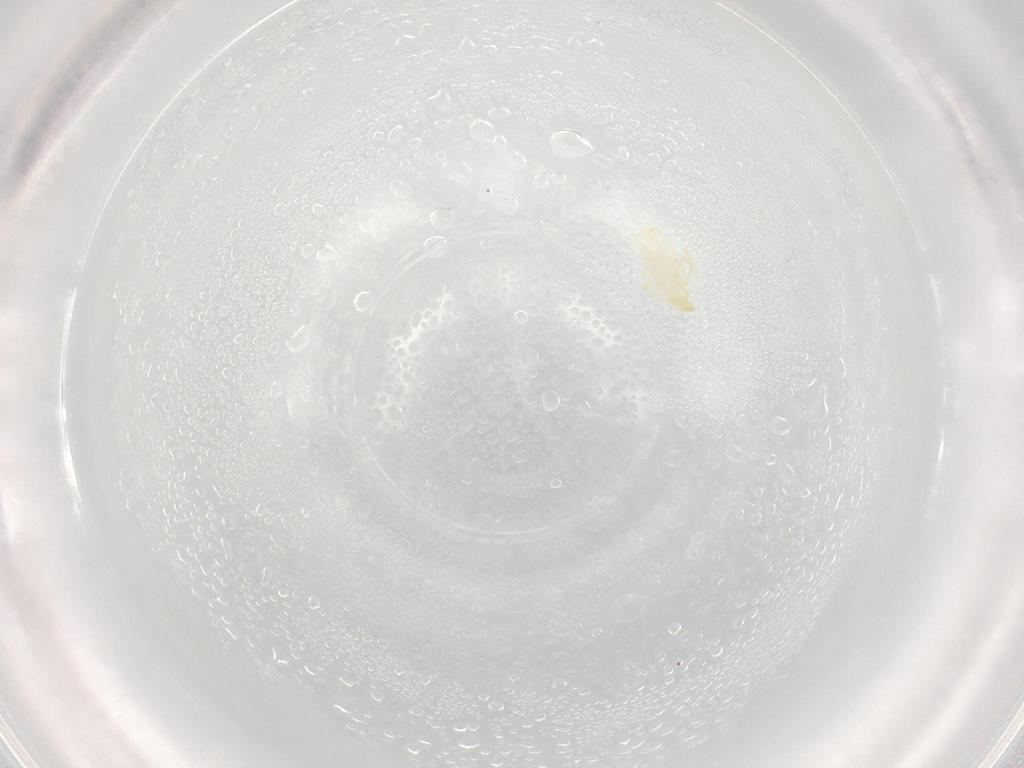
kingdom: Animalia
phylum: Arthropoda
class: Arachnida
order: Trombidiformes
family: Erythraeidae
